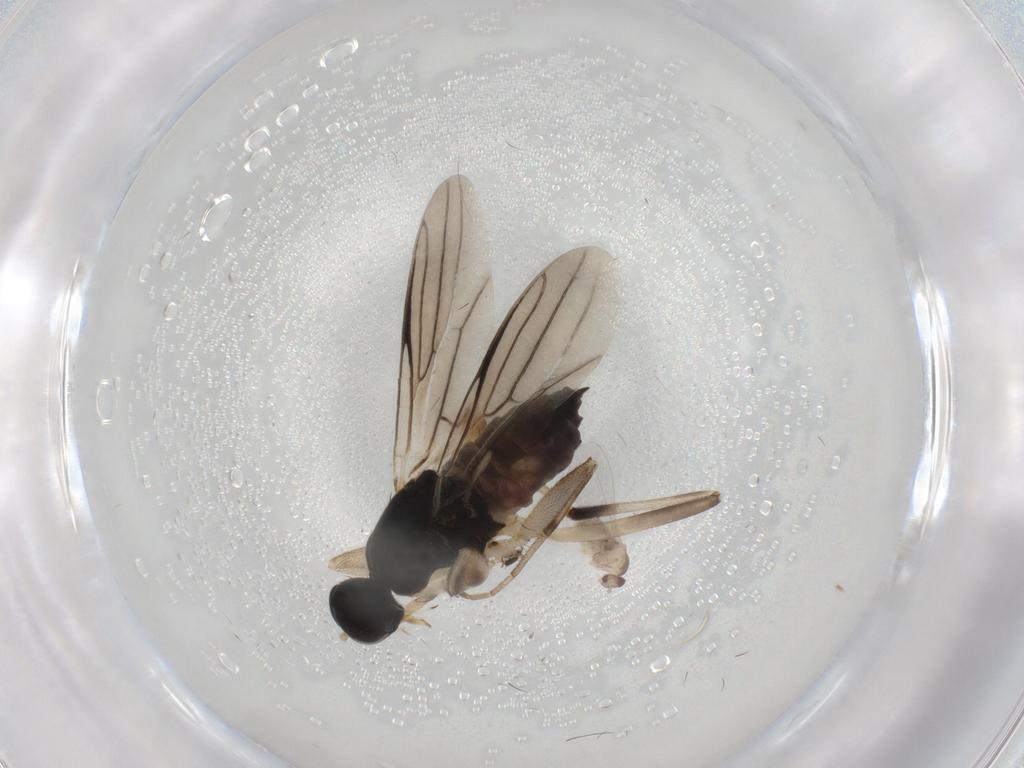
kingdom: Animalia
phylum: Arthropoda
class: Insecta
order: Diptera
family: Hybotidae
